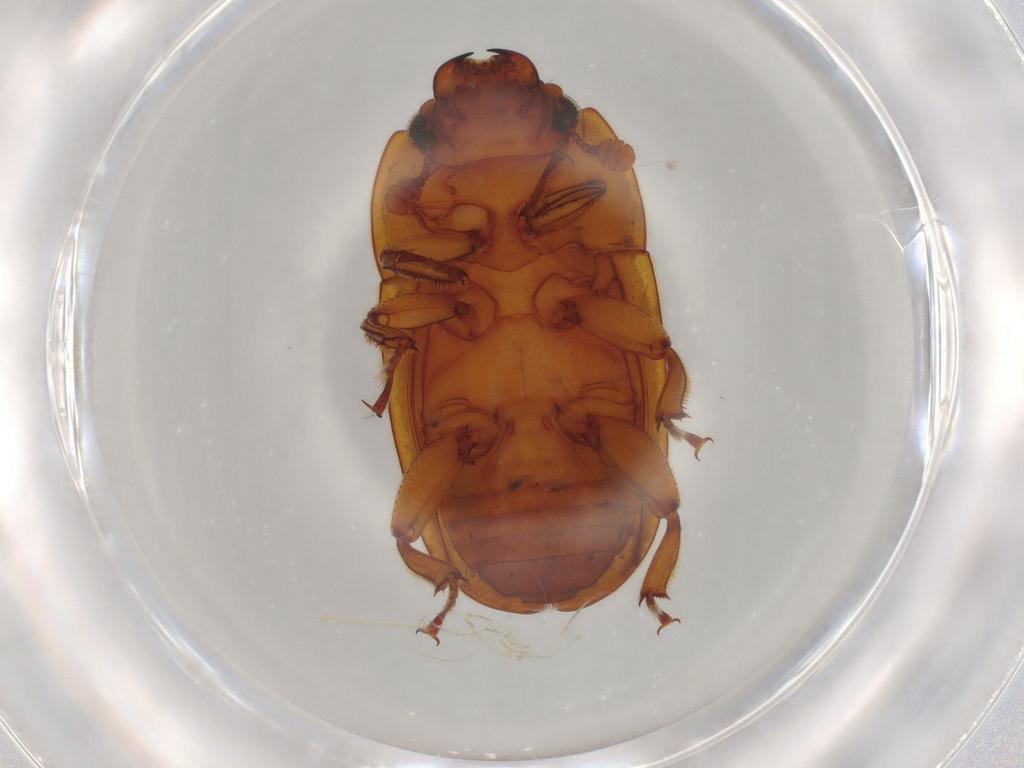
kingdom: Animalia
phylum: Arthropoda
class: Insecta
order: Coleoptera
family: Nitidulidae
